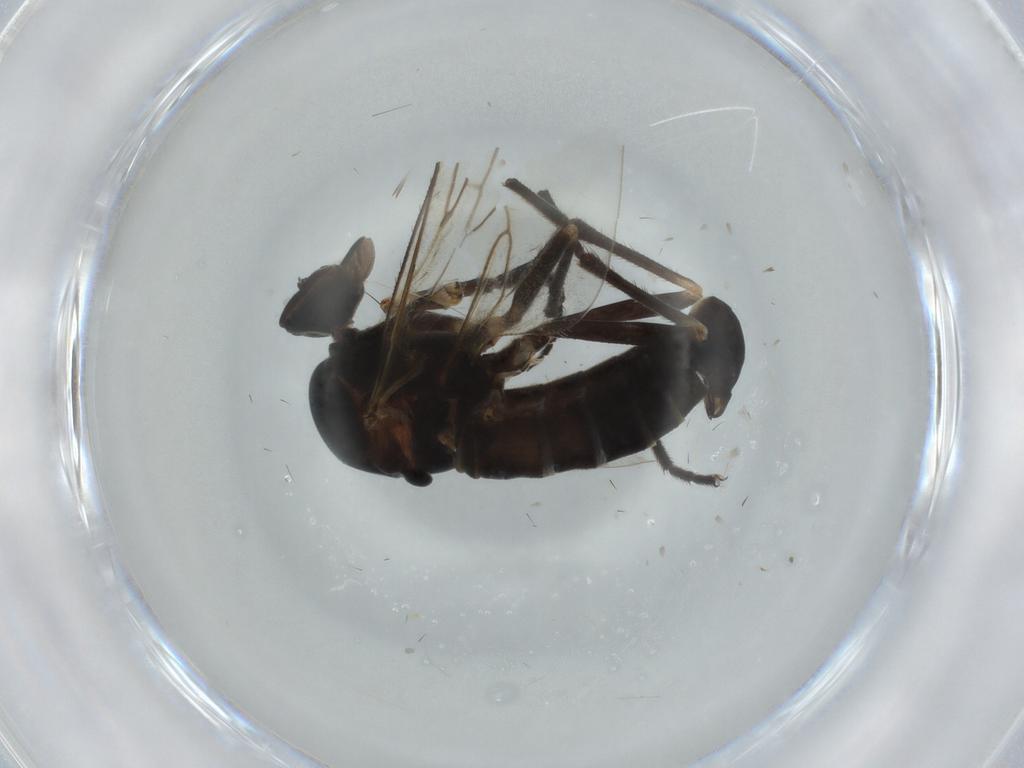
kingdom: Animalia
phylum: Arthropoda
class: Insecta
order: Diptera
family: Empididae
